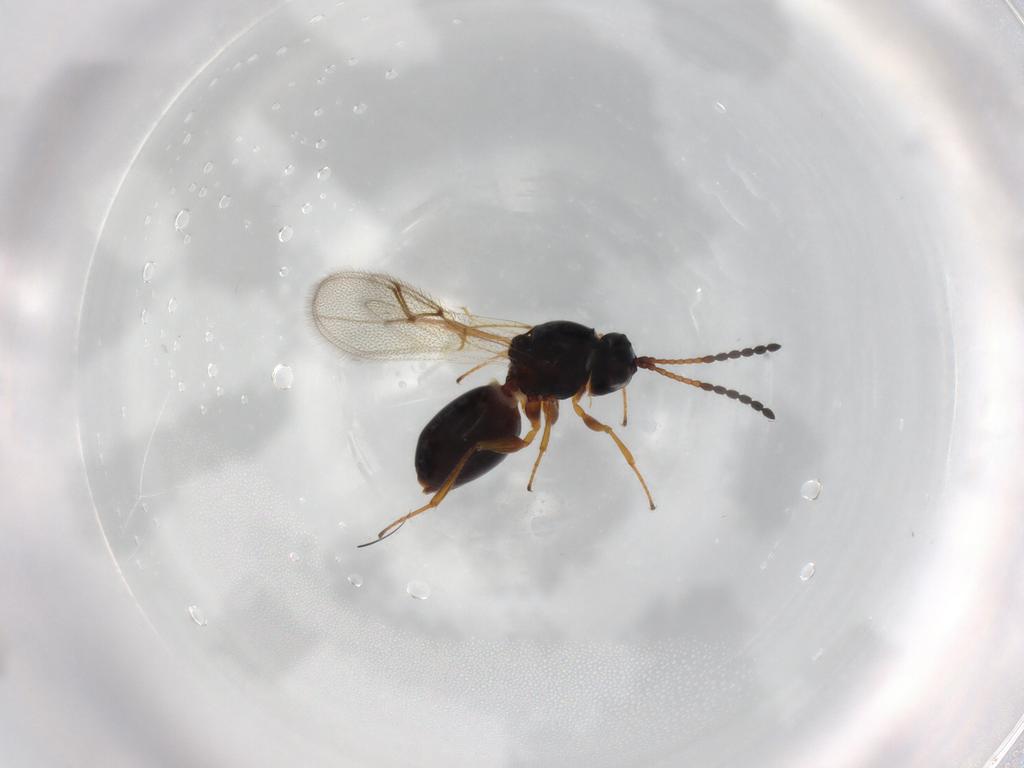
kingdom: Animalia
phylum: Arthropoda
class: Insecta
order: Hymenoptera
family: Figitidae
